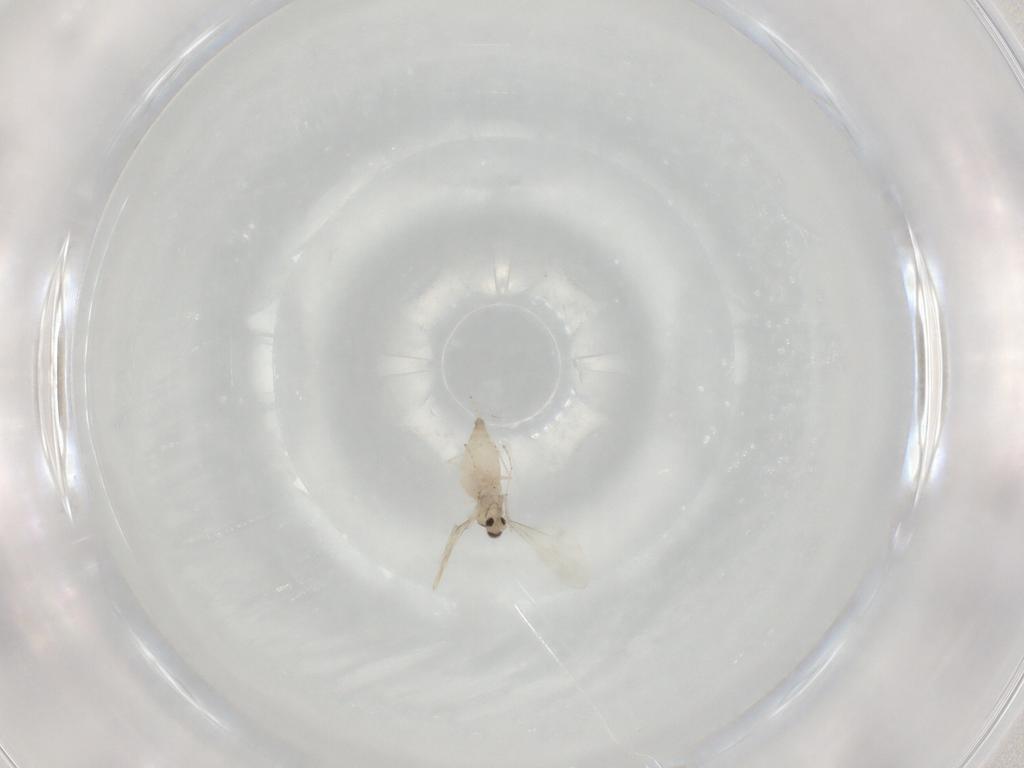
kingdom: Animalia
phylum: Arthropoda
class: Insecta
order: Diptera
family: Cecidomyiidae
